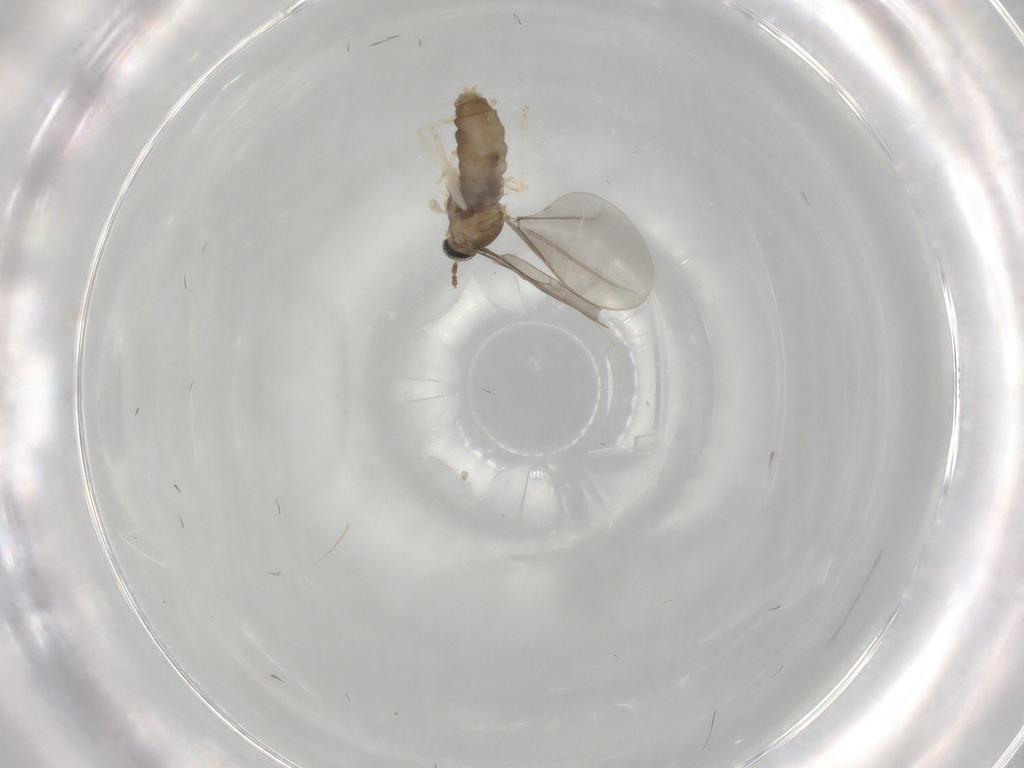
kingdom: Animalia
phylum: Arthropoda
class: Insecta
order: Diptera
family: Cecidomyiidae
